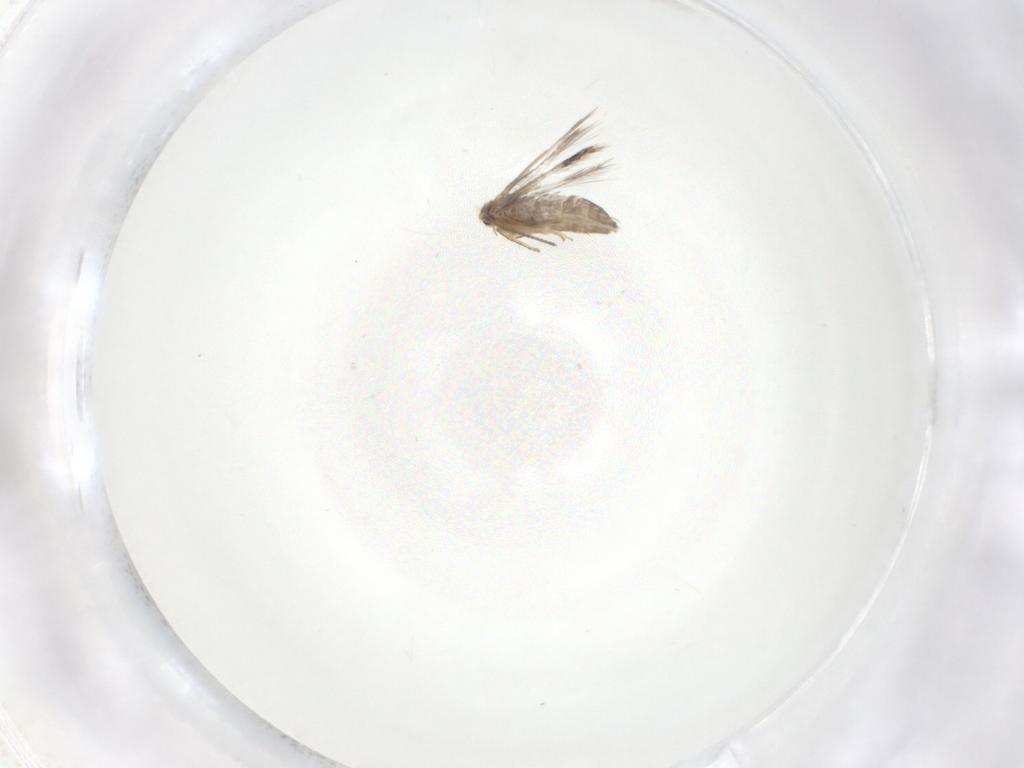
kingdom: Animalia
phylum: Arthropoda
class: Insecta
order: Lepidoptera
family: Nepticulidae
